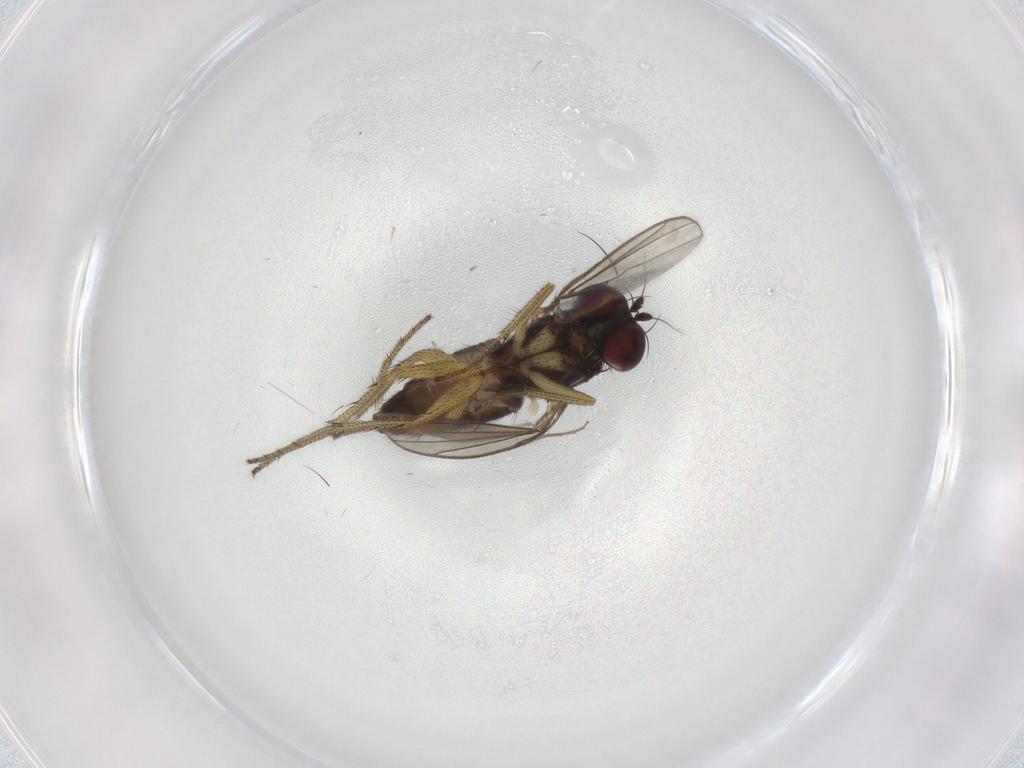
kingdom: Animalia
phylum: Arthropoda
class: Insecta
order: Diptera
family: Chironomidae
